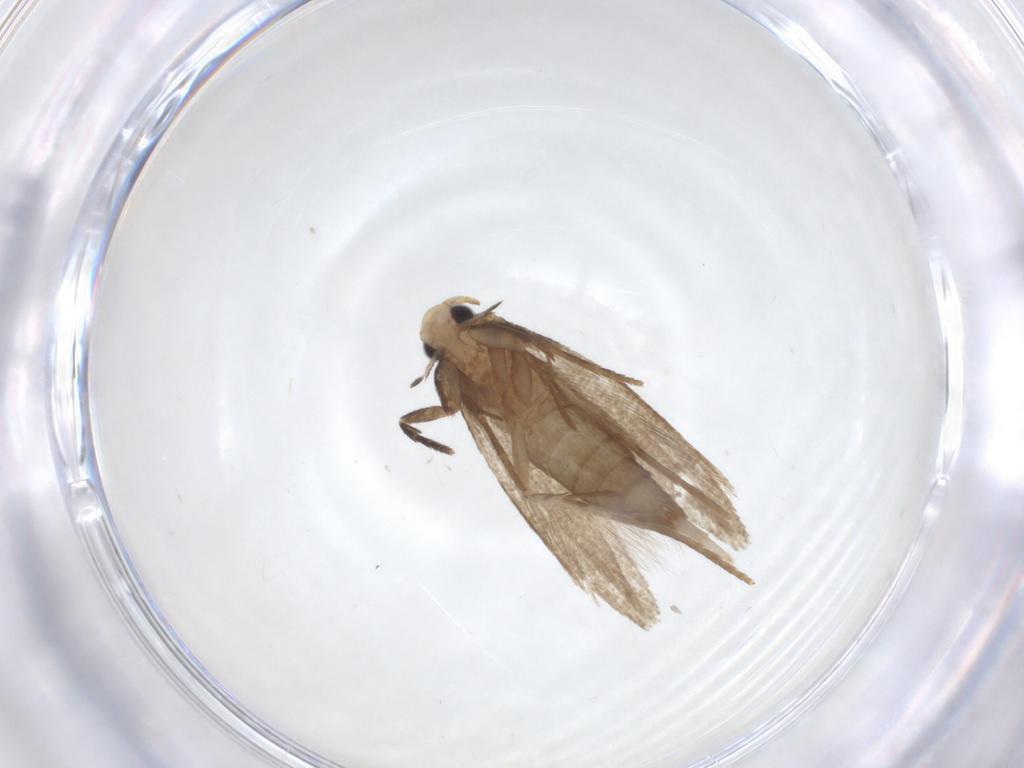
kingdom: Animalia
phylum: Arthropoda
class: Insecta
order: Lepidoptera
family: Tineidae
